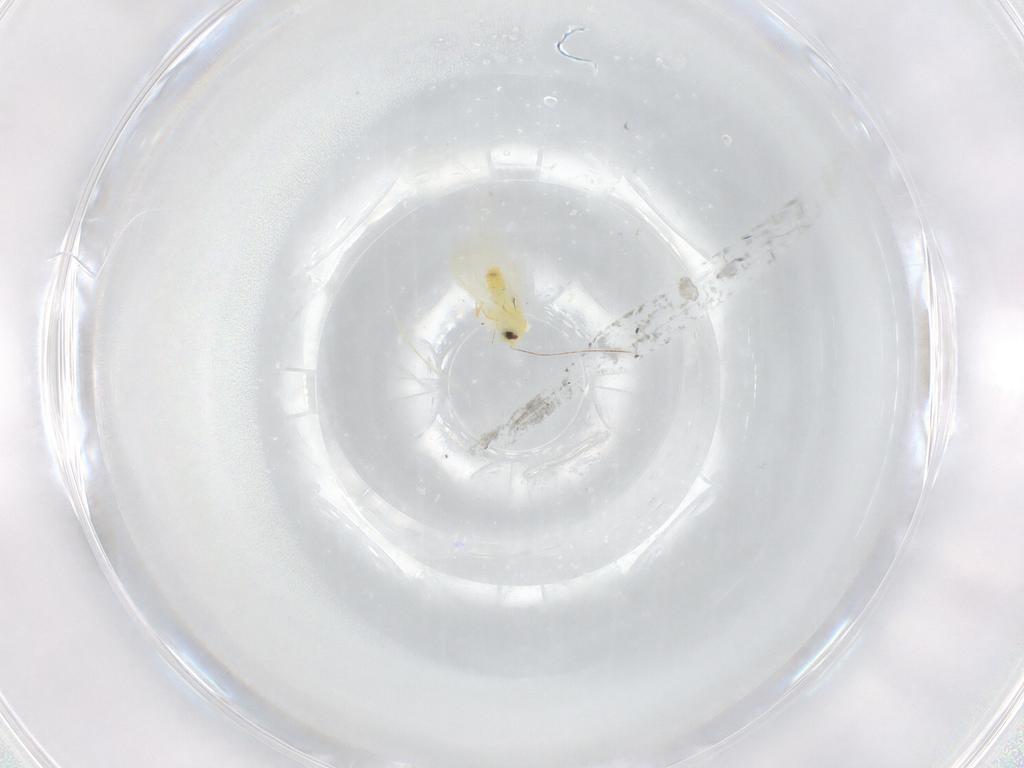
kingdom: Animalia
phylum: Arthropoda
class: Insecta
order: Hemiptera
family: Aleyrodidae
